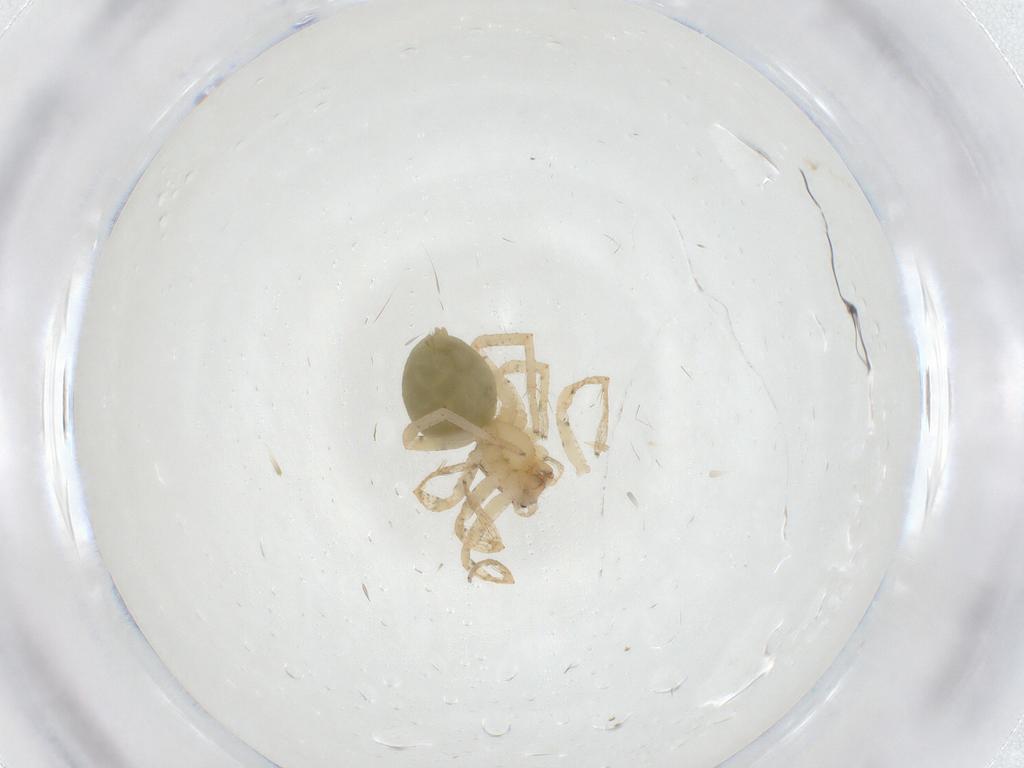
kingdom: Animalia
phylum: Arthropoda
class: Arachnida
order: Araneae
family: Anyphaenidae
